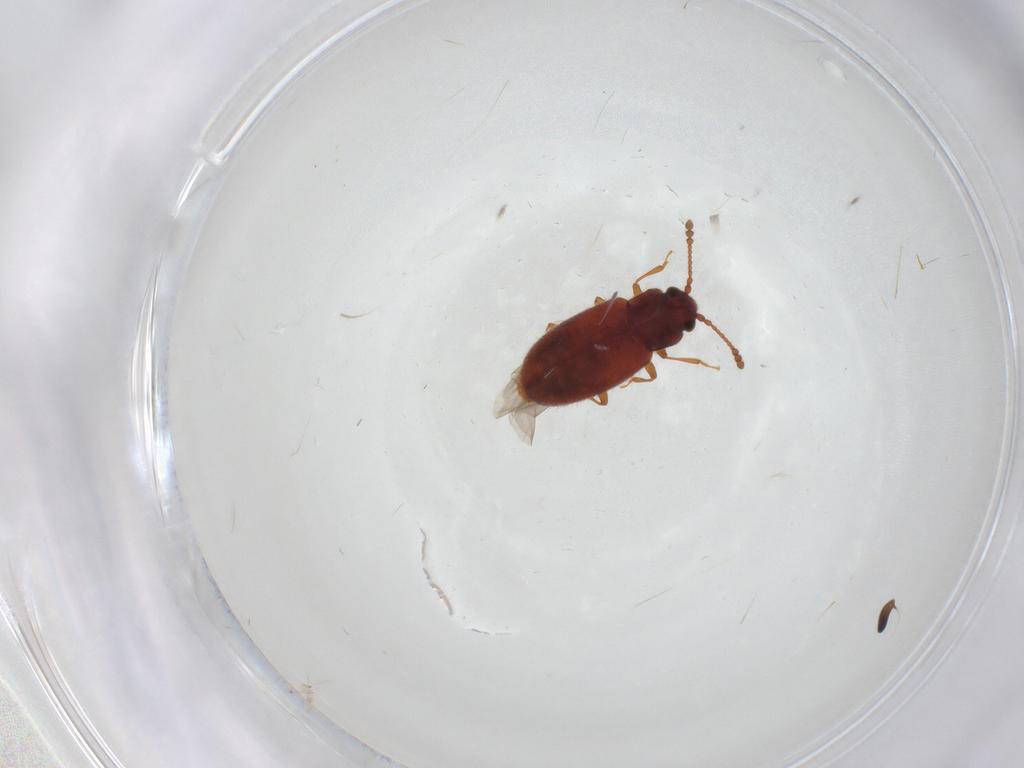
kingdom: Animalia
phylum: Arthropoda
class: Insecta
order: Coleoptera
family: Cryptophagidae
